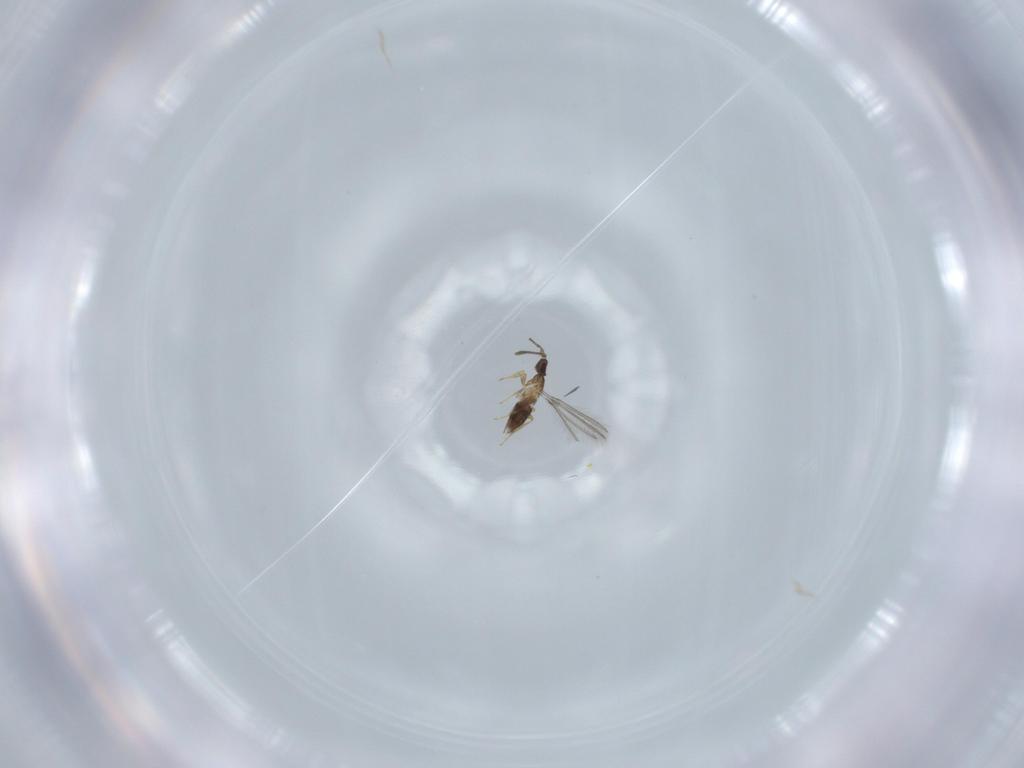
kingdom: Animalia
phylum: Arthropoda
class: Insecta
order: Hymenoptera
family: Mymaridae
